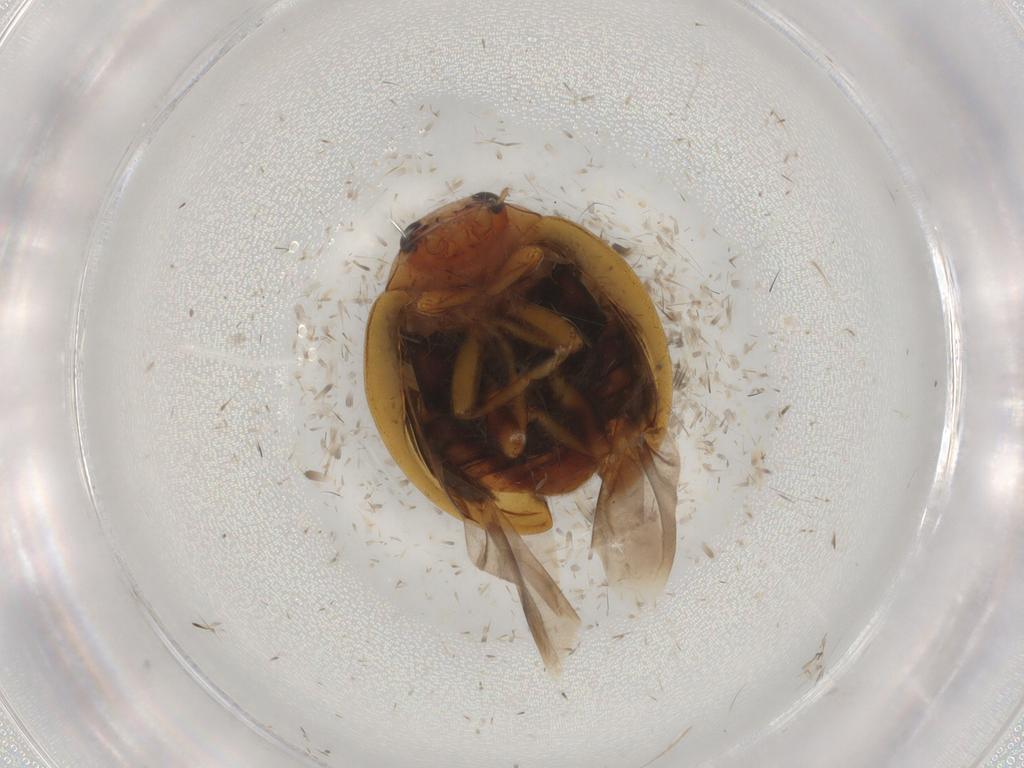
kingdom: Animalia
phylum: Arthropoda
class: Insecta
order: Coleoptera
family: Coccinellidae
